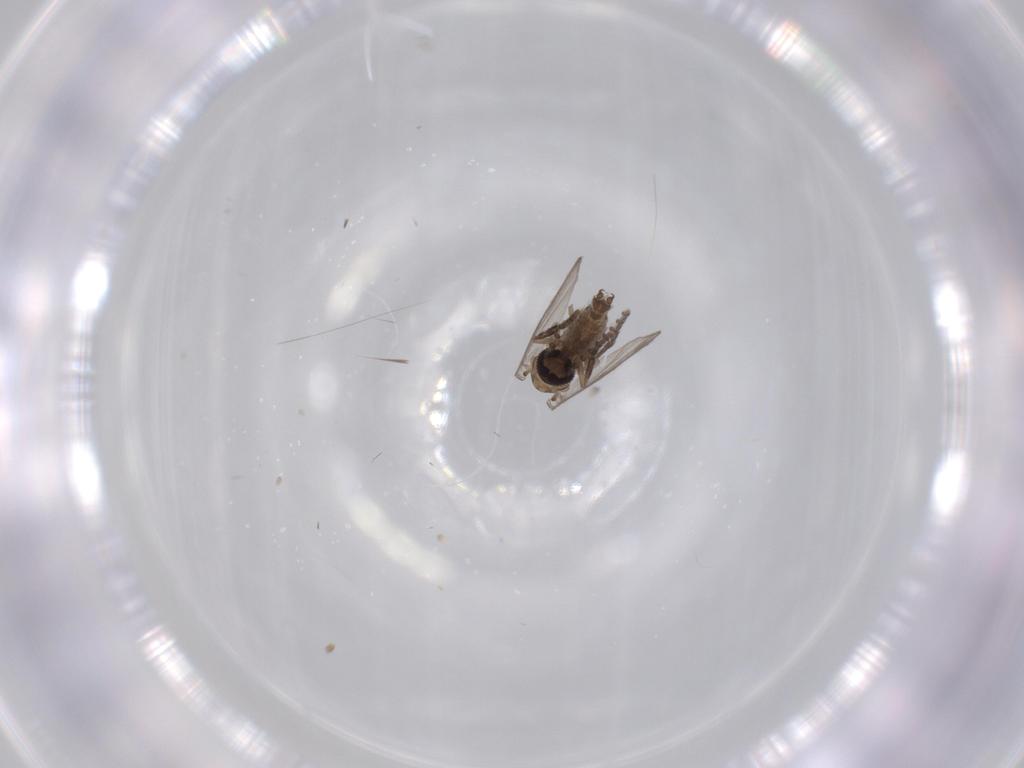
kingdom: Animalia
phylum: Arthropoda
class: Insecta
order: Diptera
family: Psychodidae
